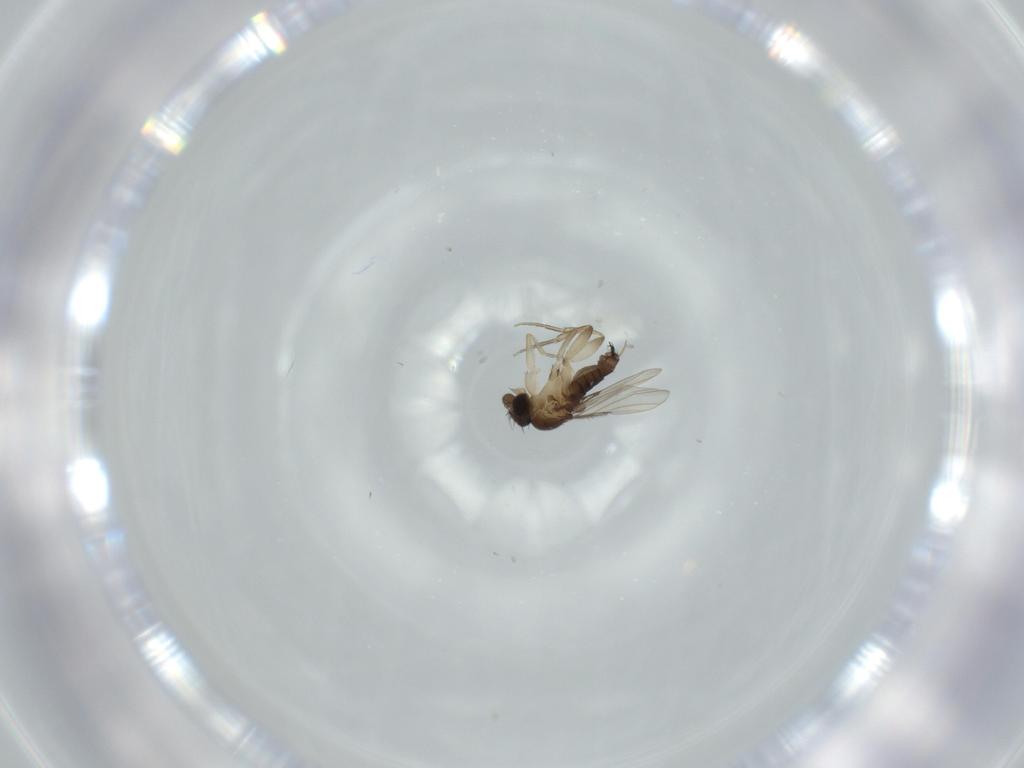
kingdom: Animalia
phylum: Arthropoda
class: Insecta
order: Diptera
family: Phoridae
